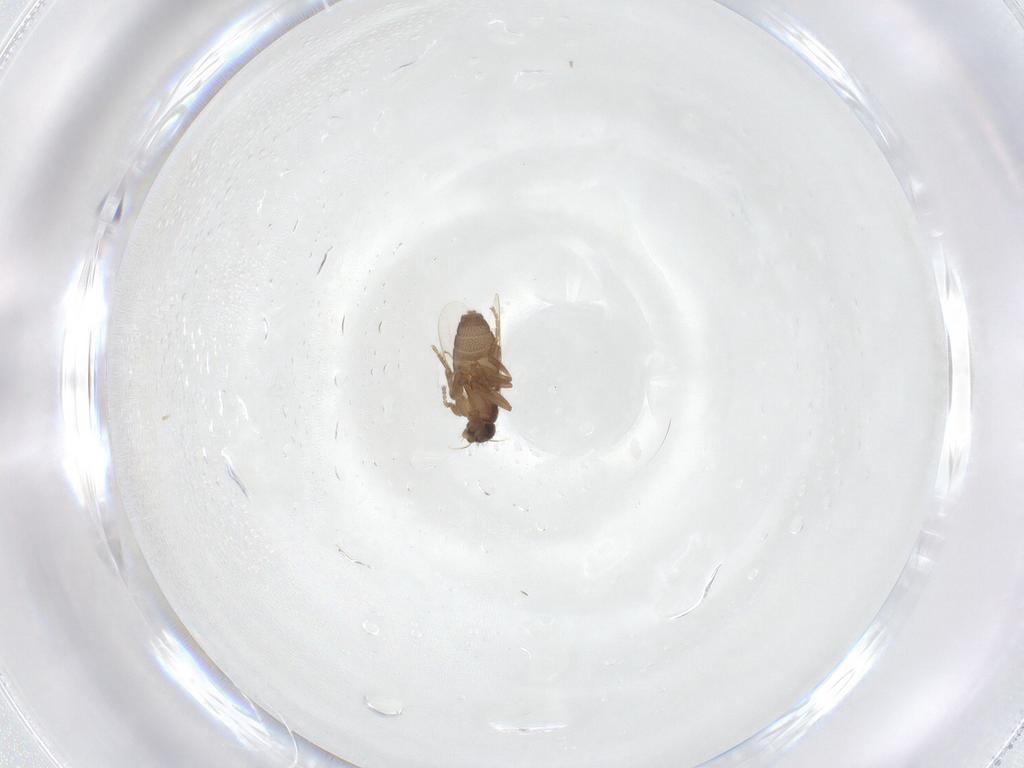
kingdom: Animalia
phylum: Arthropoda
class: Insecta
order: Diptera
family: Phoridae
